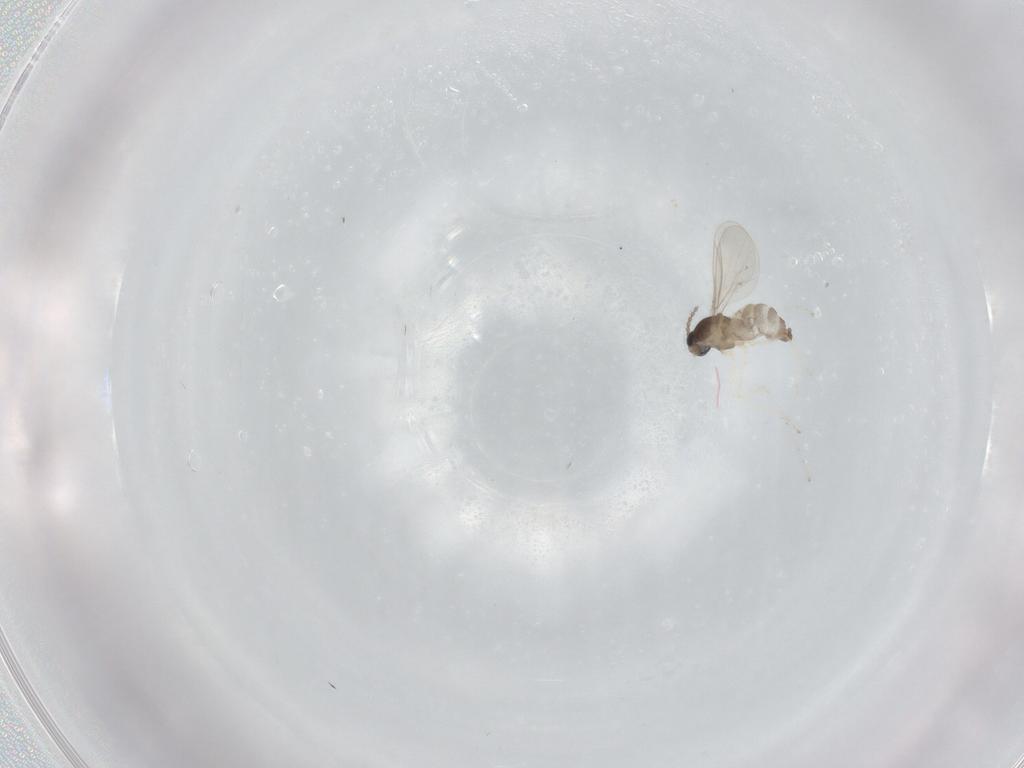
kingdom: Animalia
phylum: Arthropoda
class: Insecta
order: Diptera
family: Cecidomyiidae
